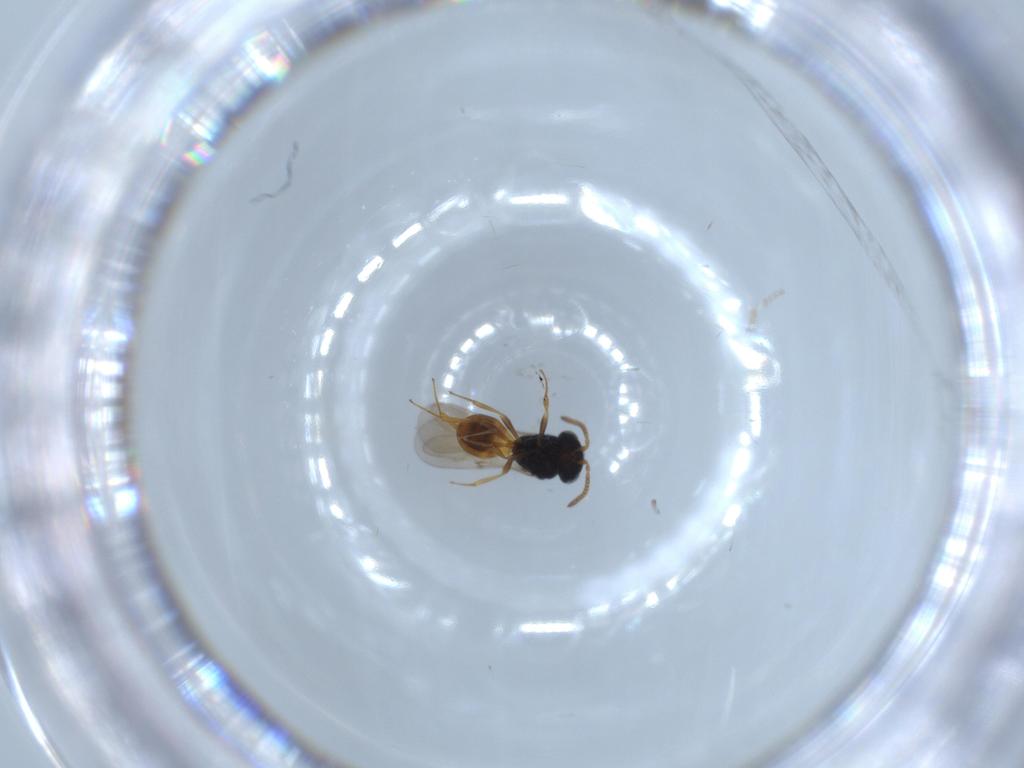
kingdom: Animalia
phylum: Arthropoda
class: Insecta
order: Hymenoptera
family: Scelionidae
